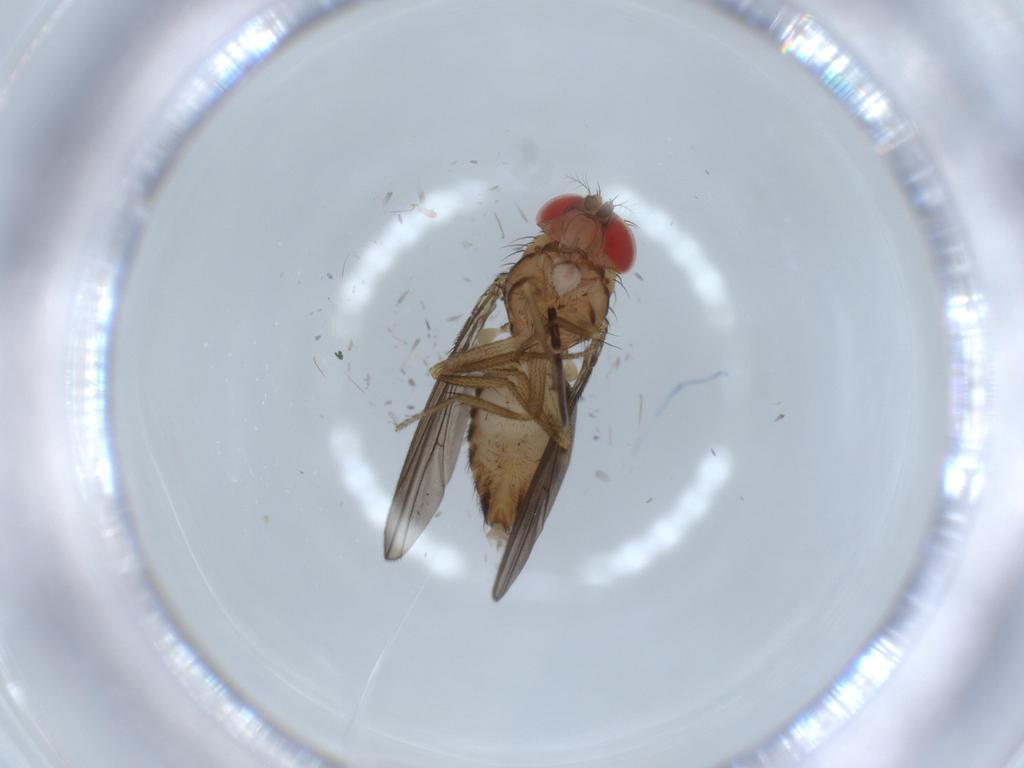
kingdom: Animalia
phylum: Arthropoda
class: Insecta
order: Diptera
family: Drosophilidae
